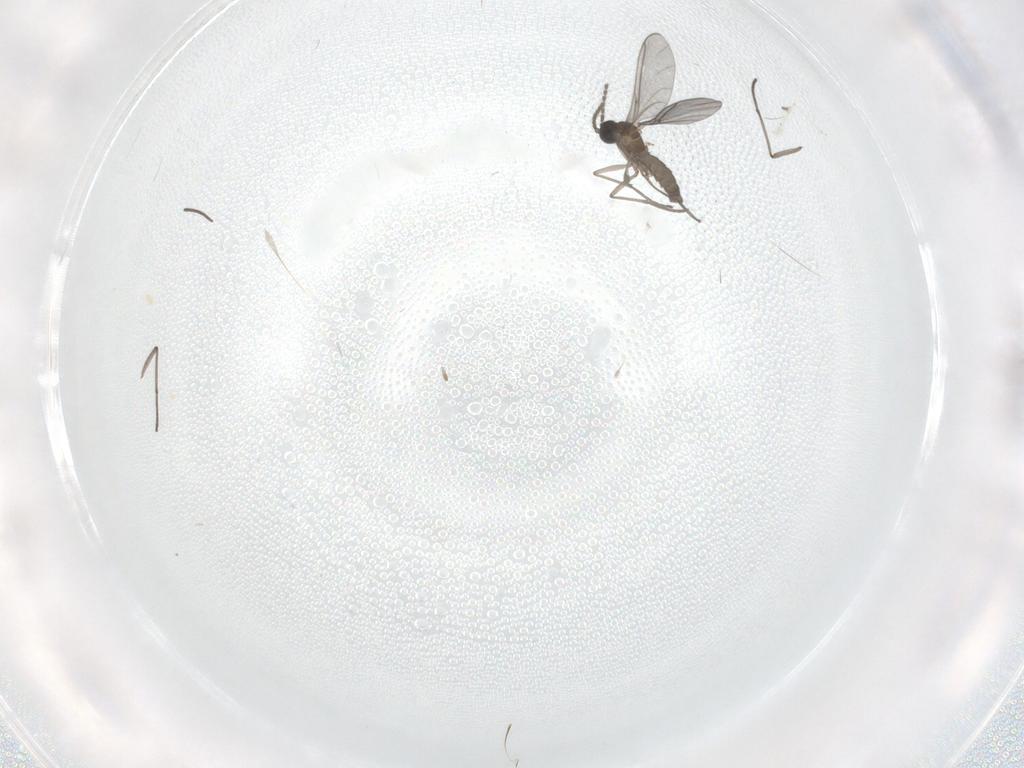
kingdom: Animalia
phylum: Arthropoda
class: Insecta
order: Diptera
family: Sciaridae
